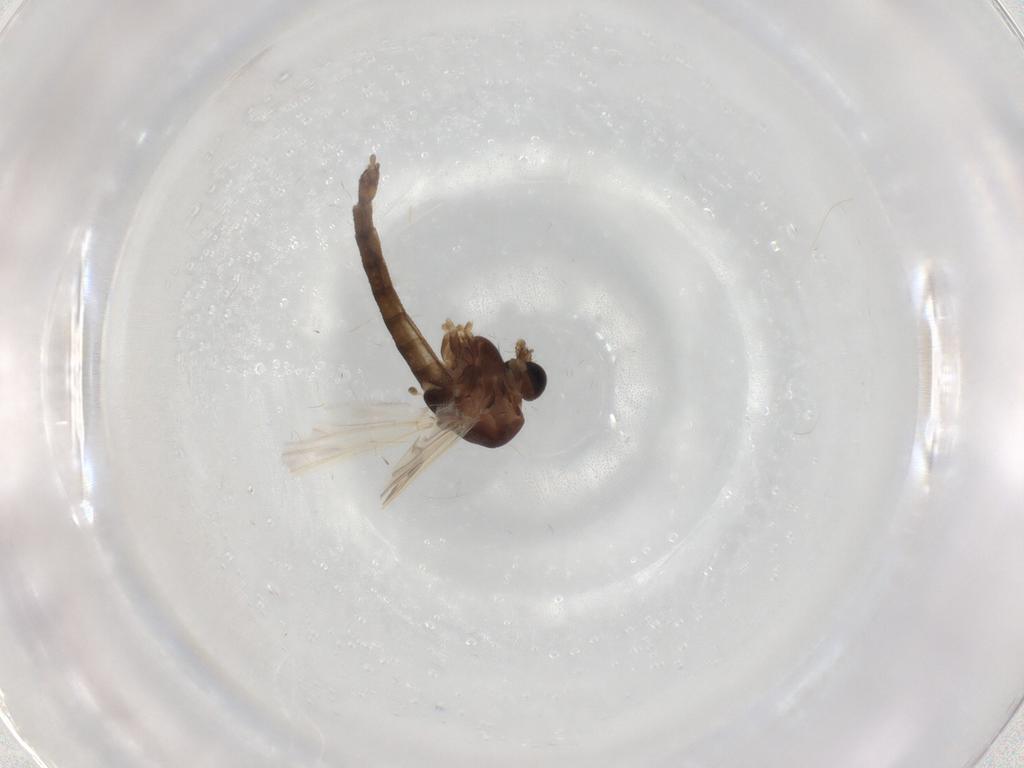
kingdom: Animalia
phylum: Arthropoda
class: Insecta
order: Diptera
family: Chironomidae
